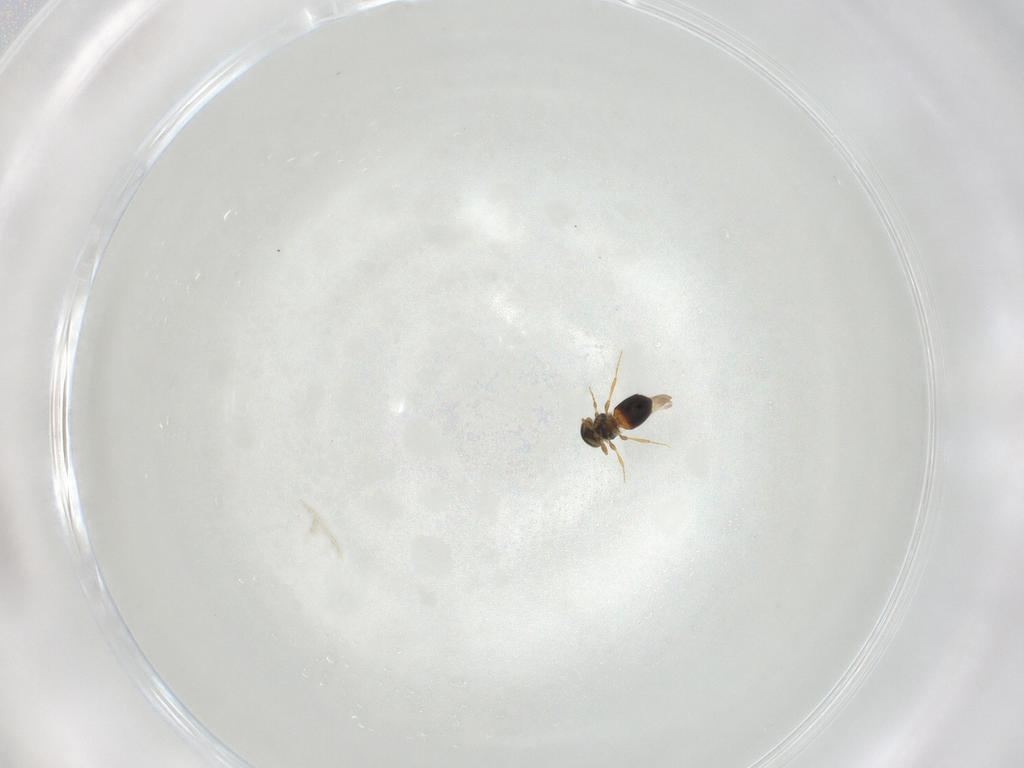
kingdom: Animalia
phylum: Arthropoda
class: Insecta
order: Hymenoptera
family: Platygastridae
